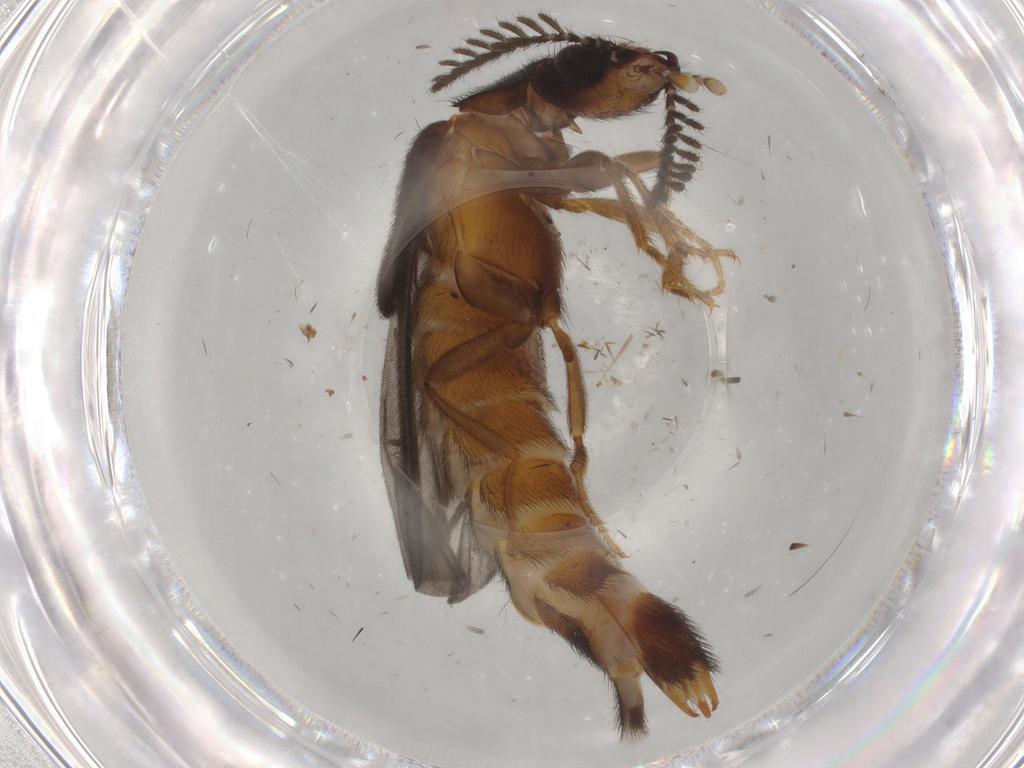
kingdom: Animalia
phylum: Arthropoda
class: Insecta
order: Coleoptera
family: Phengodidae
